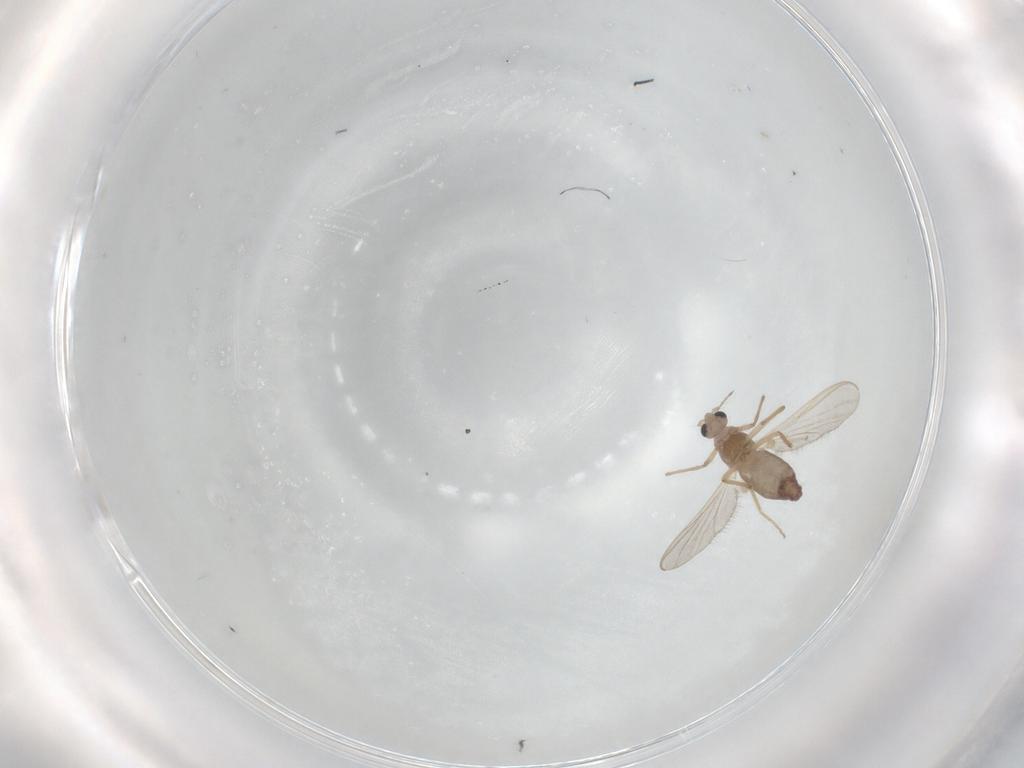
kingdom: Animalia
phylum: Arthropoda
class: Insecta
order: Diptera
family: Chironomidae
